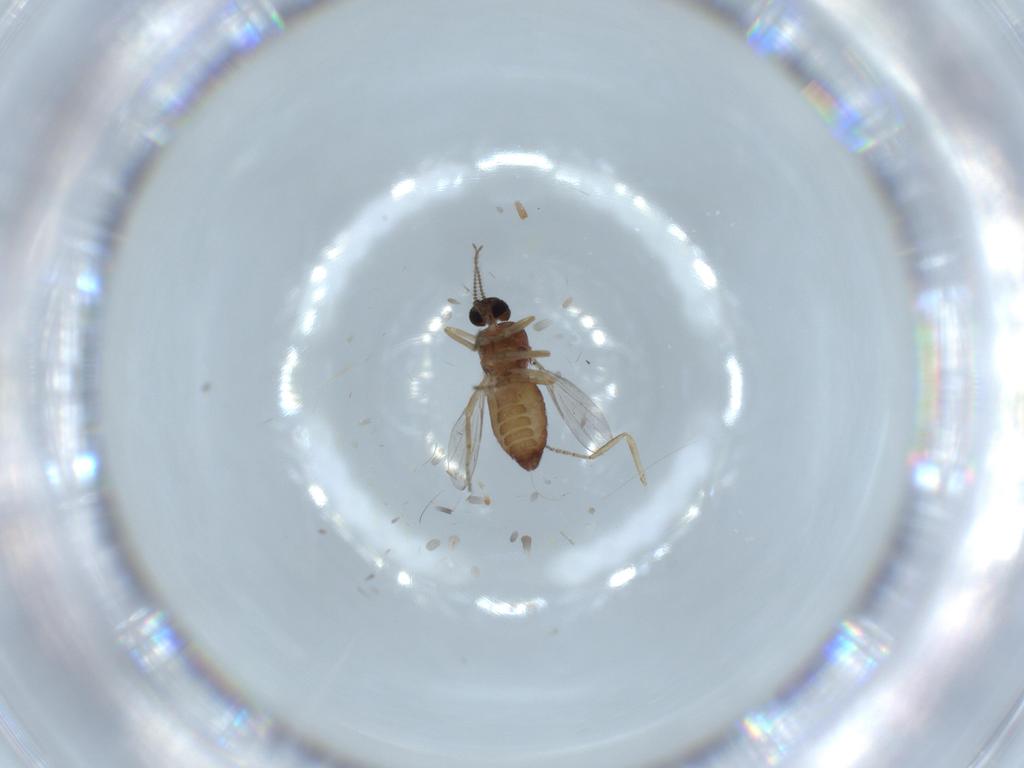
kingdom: Animalia
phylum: Arthropoda
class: Insecta
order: Diptera
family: Ceratopogonidae
